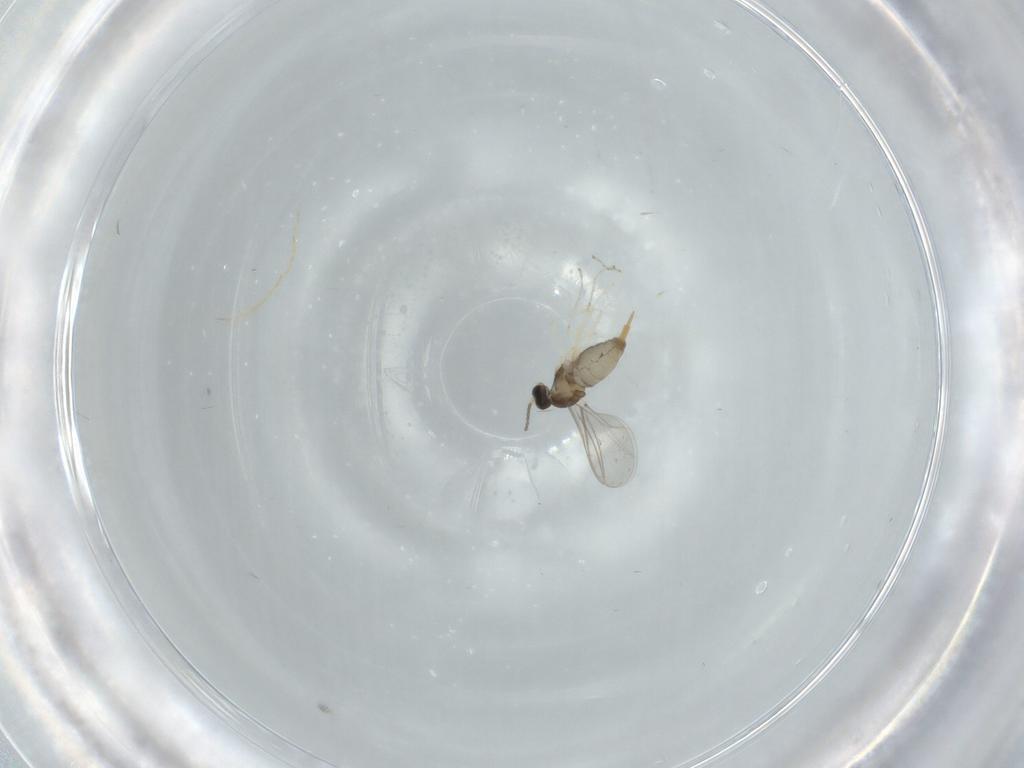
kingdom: Animalia
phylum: Arthropoda
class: Insecta
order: Diptera
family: Cecidomyiidae
